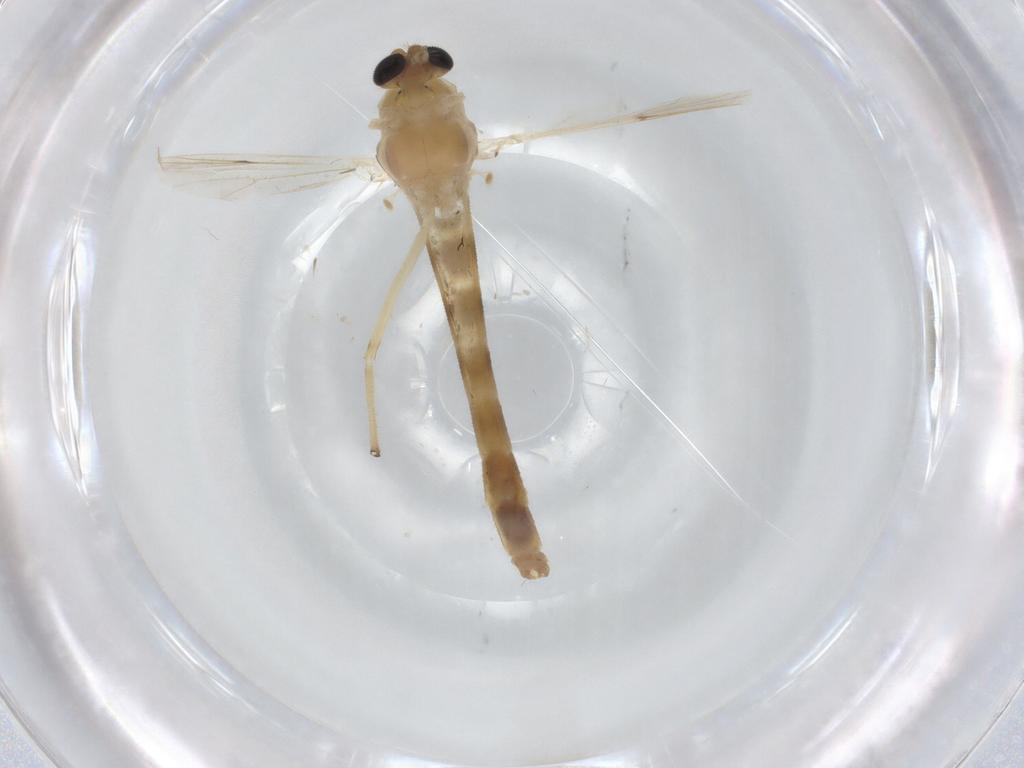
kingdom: Animalia
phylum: Arthropoda
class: Insecta
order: Diptera
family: Chironomidae
